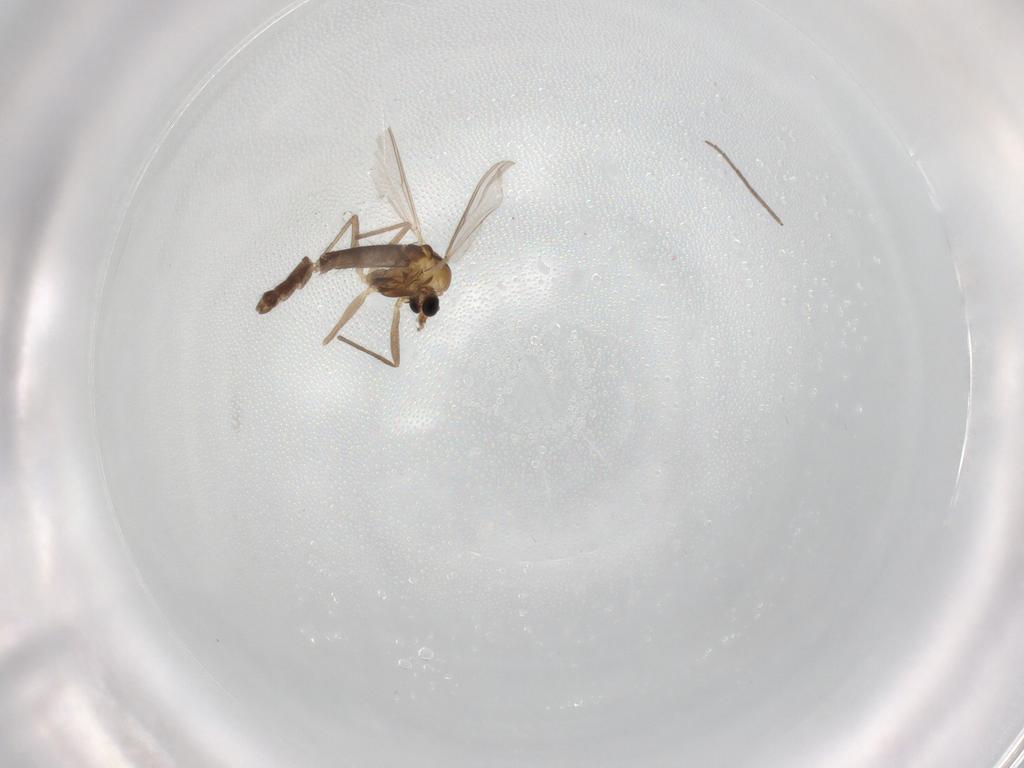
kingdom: Animalia
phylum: Arthropoda
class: Insecta
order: Diptera
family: Chironomidae
